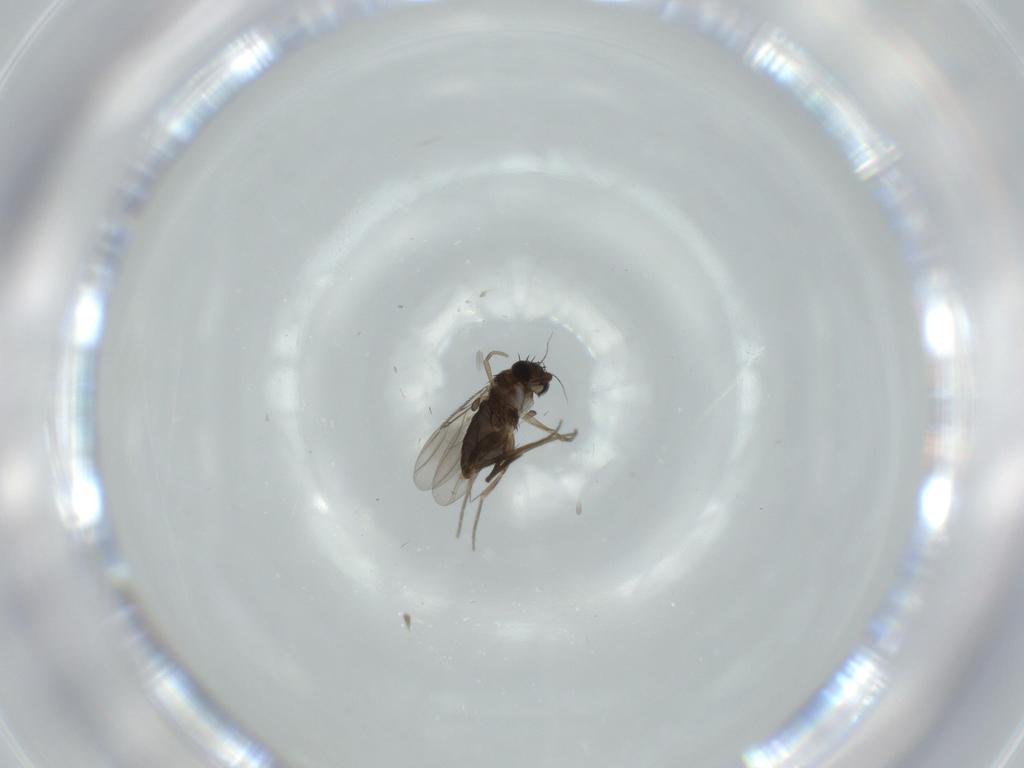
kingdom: Animalia
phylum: Arthropoda
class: Insecta
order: Diptera
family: Phoridae
